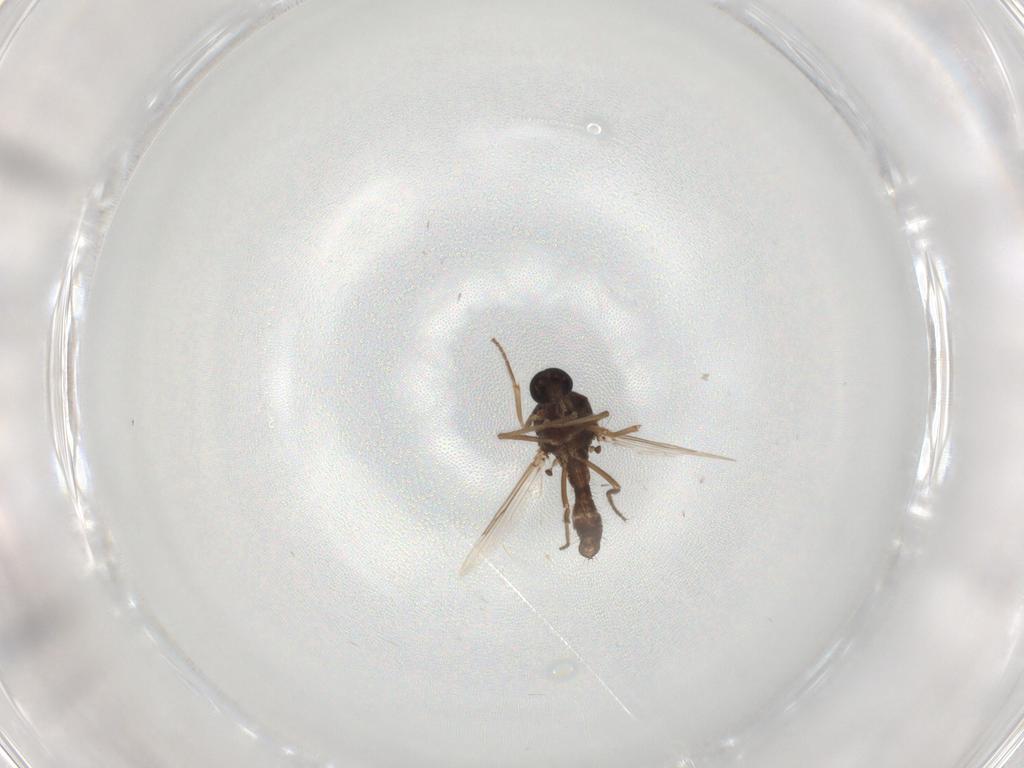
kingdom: Animalia
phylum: Arthropoda
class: Insecta
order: Diptera
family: Ceratopogonidae
